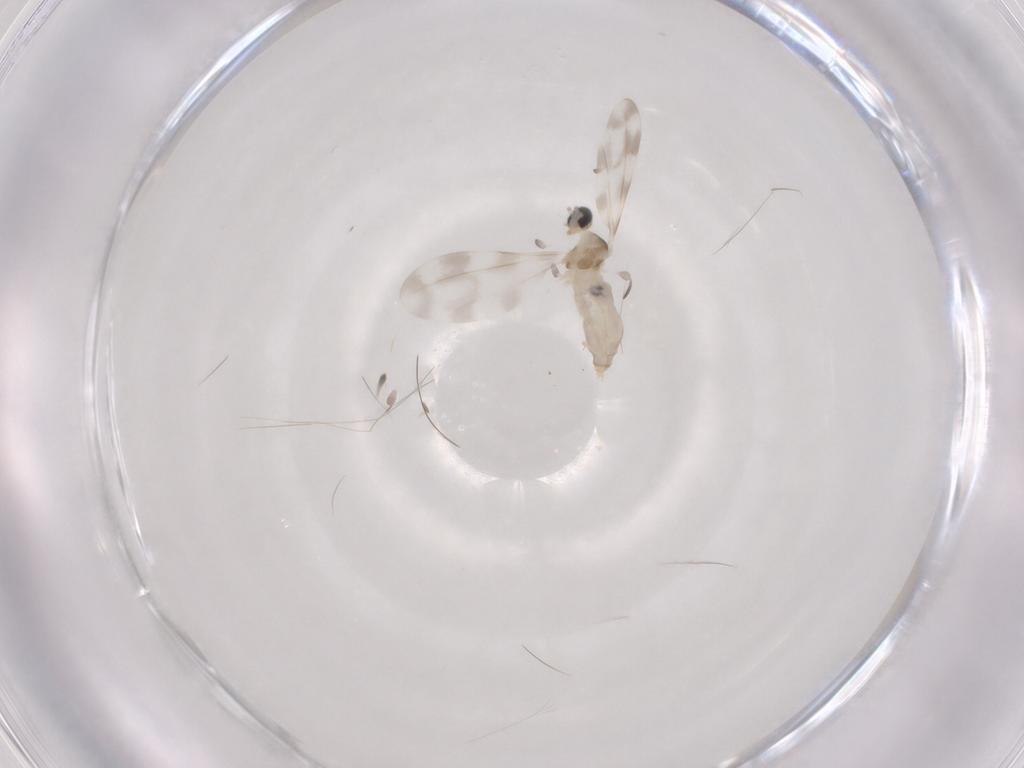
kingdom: Animalia
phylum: Arthropoda
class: Insecta
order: Diptera
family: Cecidomyiidae
